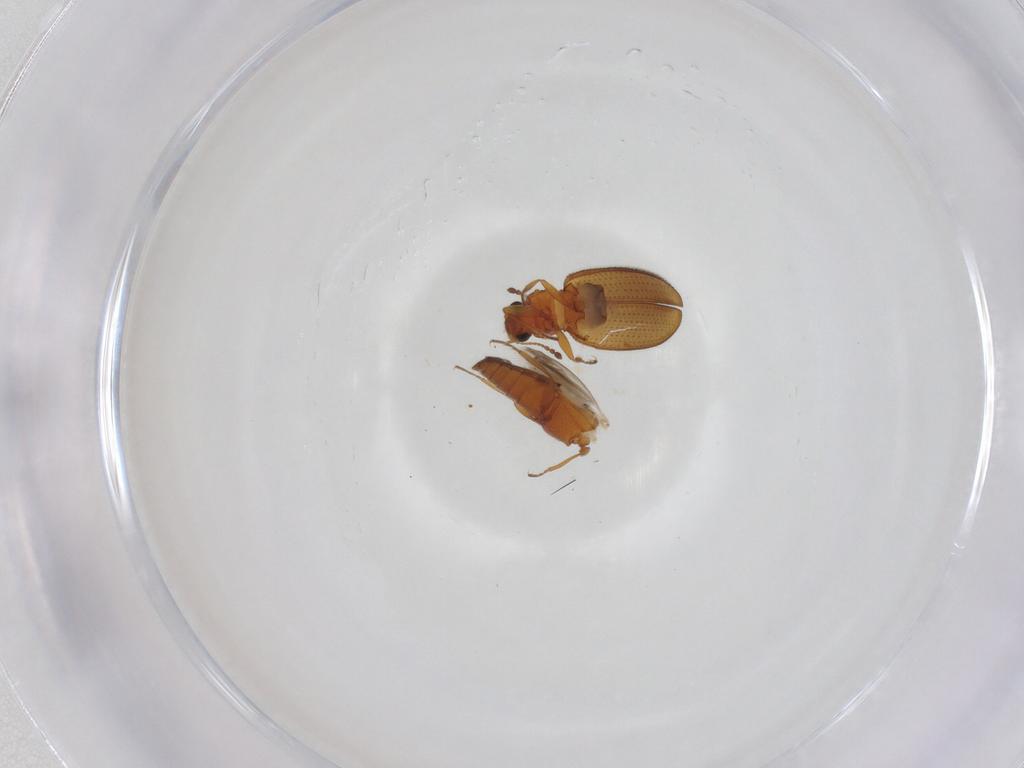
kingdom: Animalia
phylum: Arthropoda
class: Insecta
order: Coleoptera
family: Latridiidae
